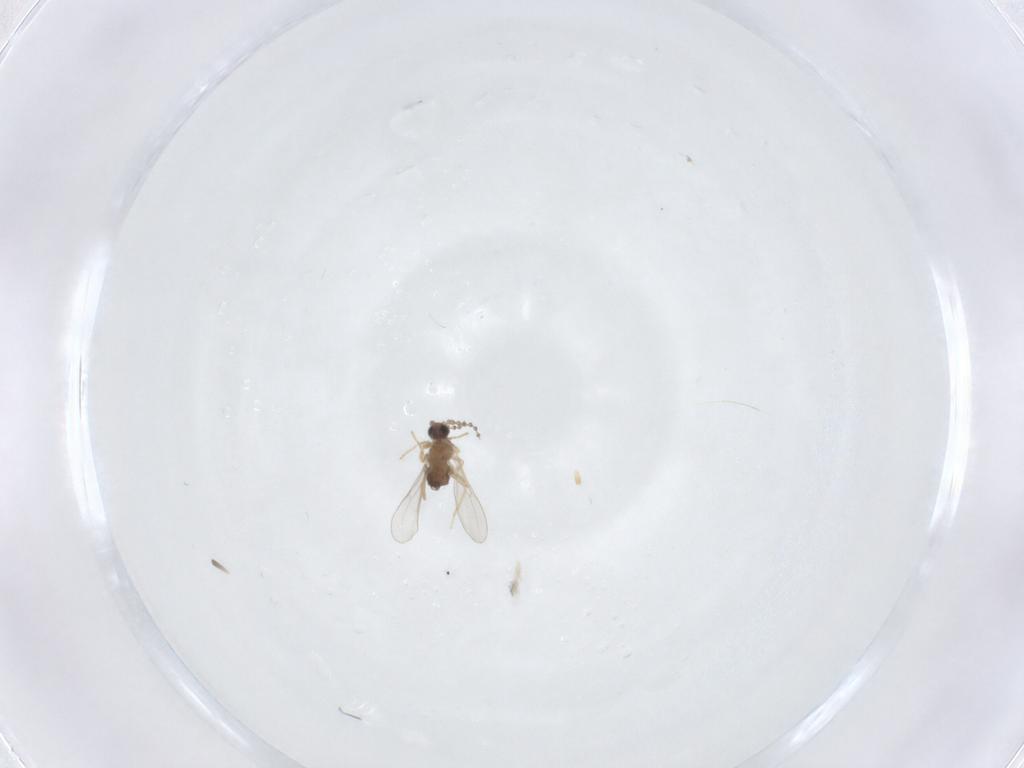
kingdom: Animalia
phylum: Arthropoda
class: Insecta
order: Diptera
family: Cecidomyiidae
